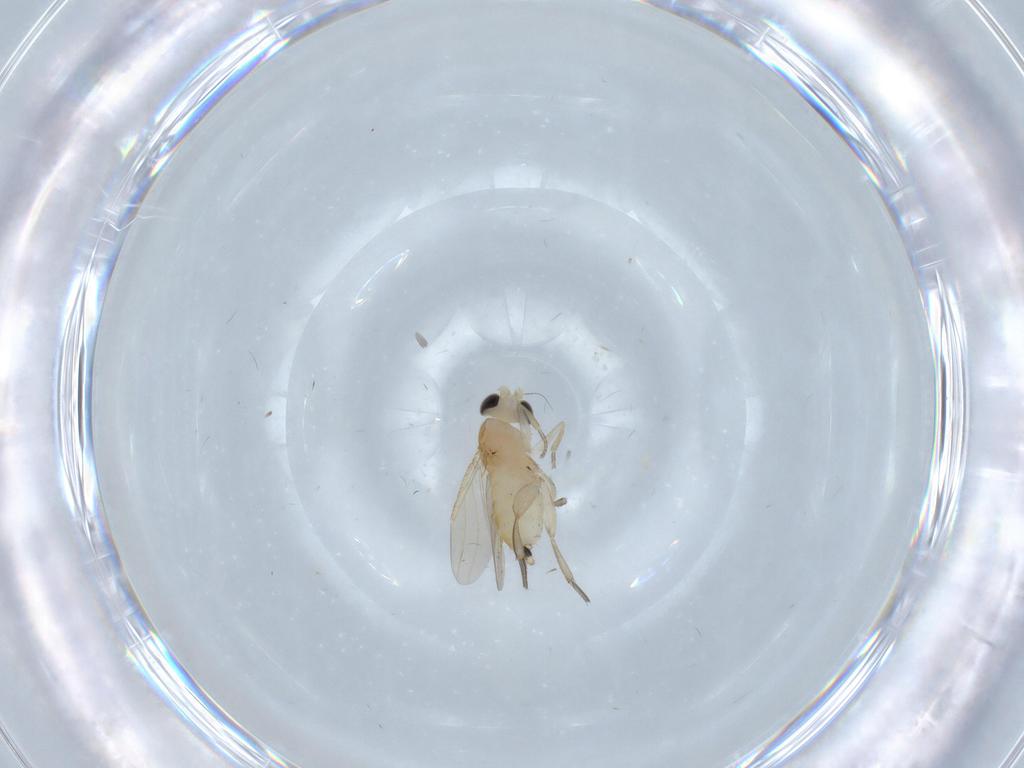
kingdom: Animalia
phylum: Arthropoda
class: Insecta
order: Diptera
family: Bibionidae
